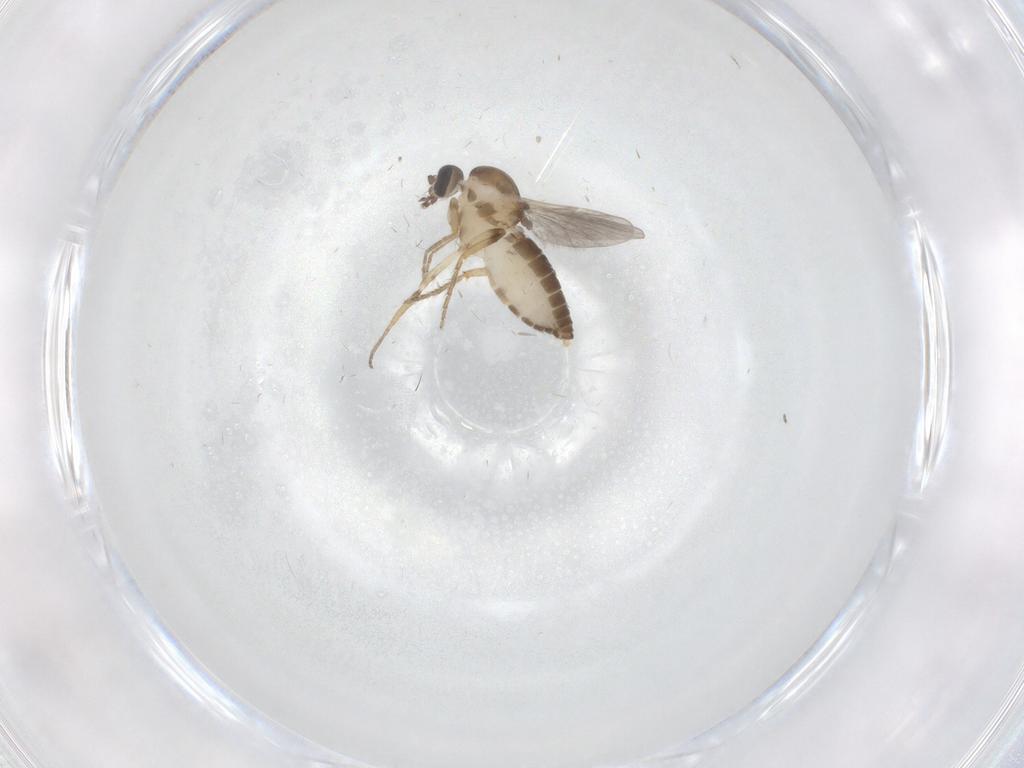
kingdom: Animalia
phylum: Arthropoda
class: Insecta
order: Diptera
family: Ceratopogonidae
